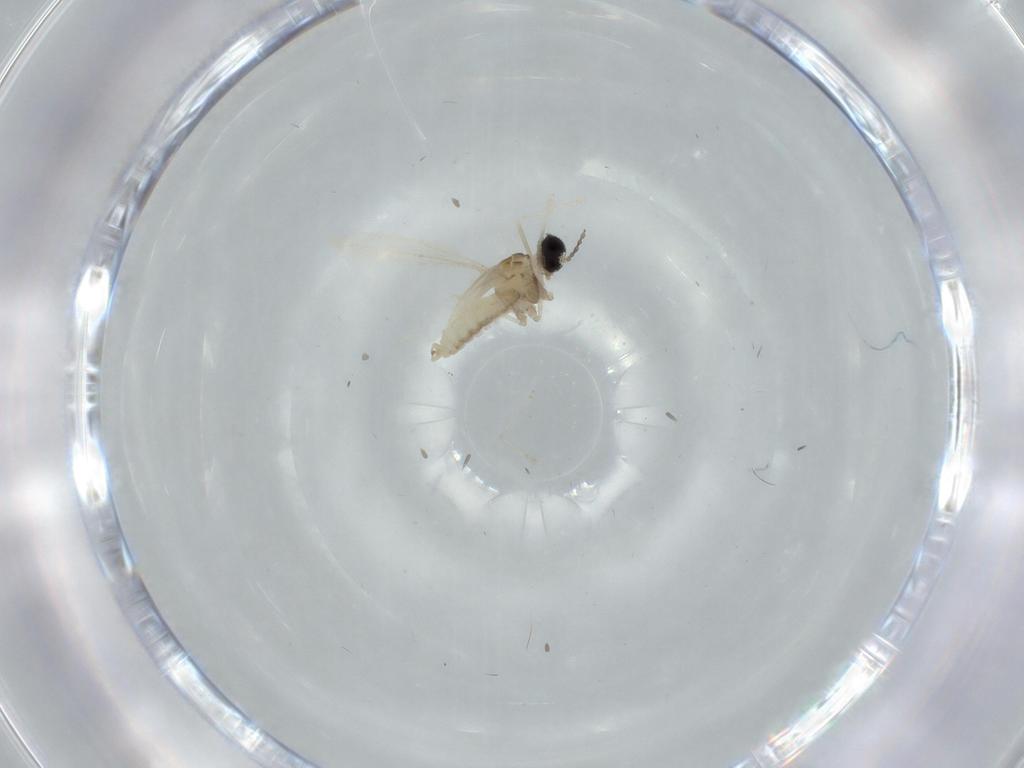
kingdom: Animalia
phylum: Arthropoda
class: Insecta
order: Diptera
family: Cecidomyiidae
